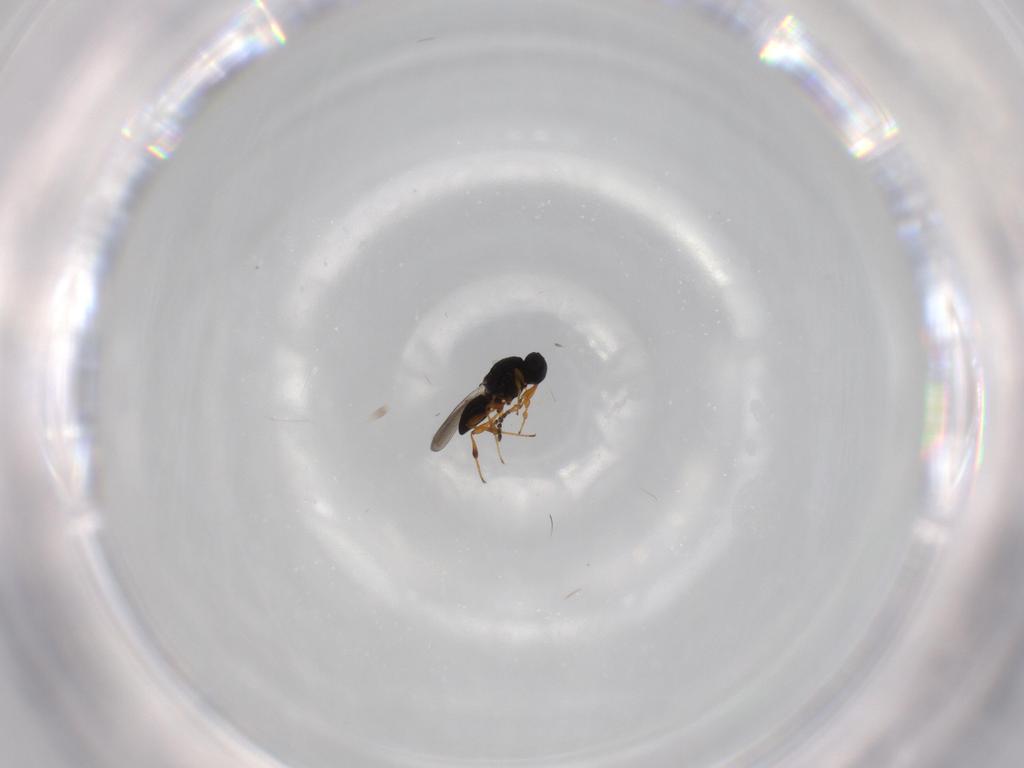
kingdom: Animalia
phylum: Arthropoda
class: Insecta
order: Hymenoptera
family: Platygastridae
